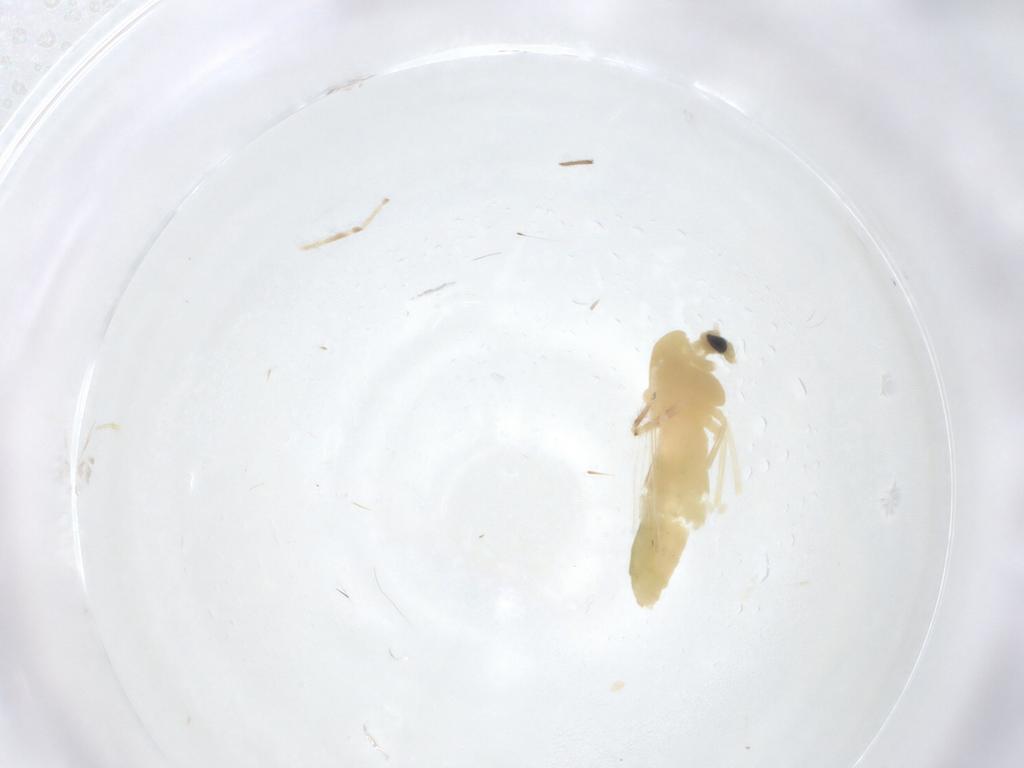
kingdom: Animalia
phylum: Arthropoda
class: Insecta
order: Diptera
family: Chironomidae
